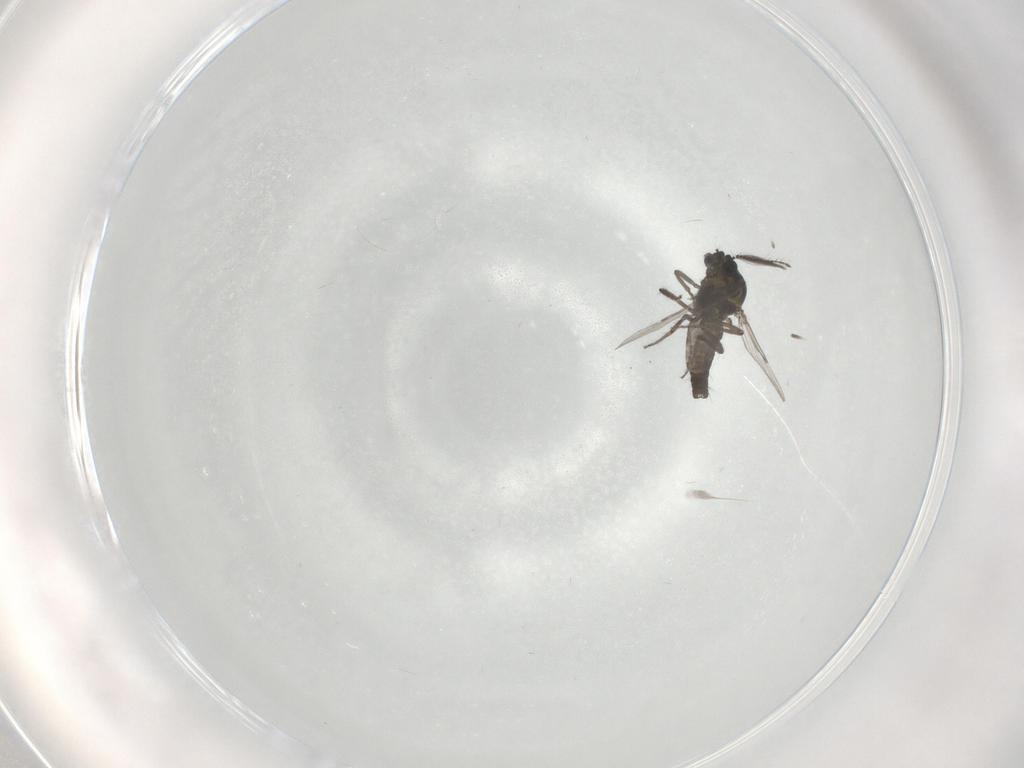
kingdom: Animalia
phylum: Arthropoda
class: Insecta
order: Diptera
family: Ceratopogonidae
